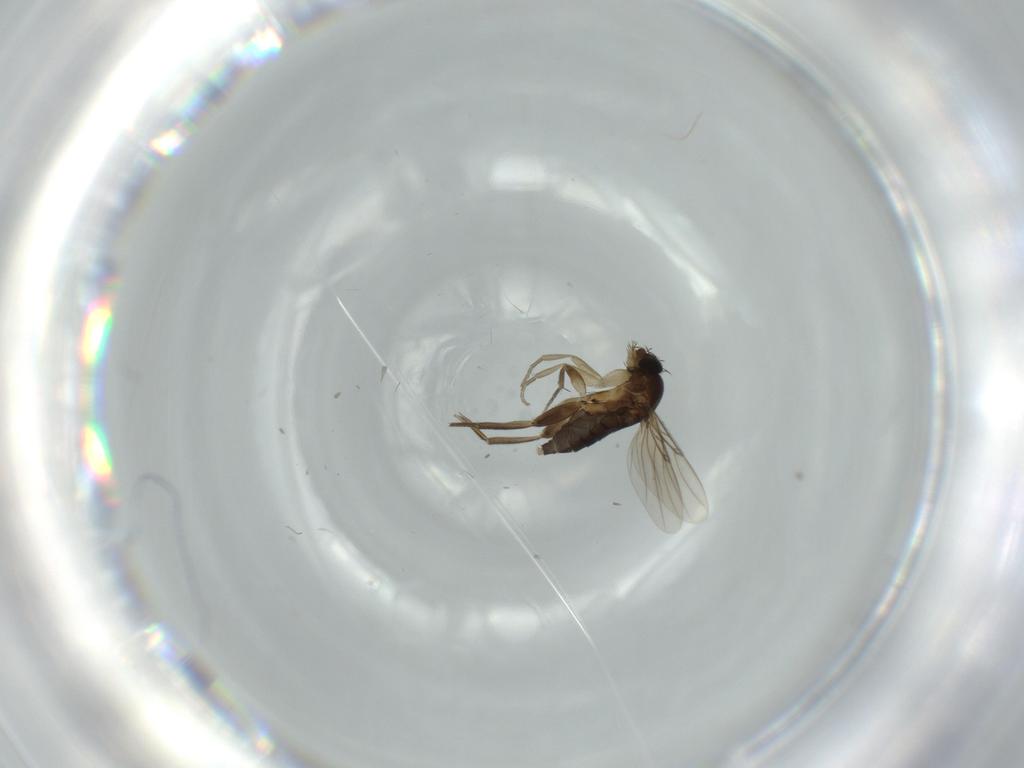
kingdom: Animalia
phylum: Arthropoda
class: Insecta
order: Diptera
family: Phoridae
